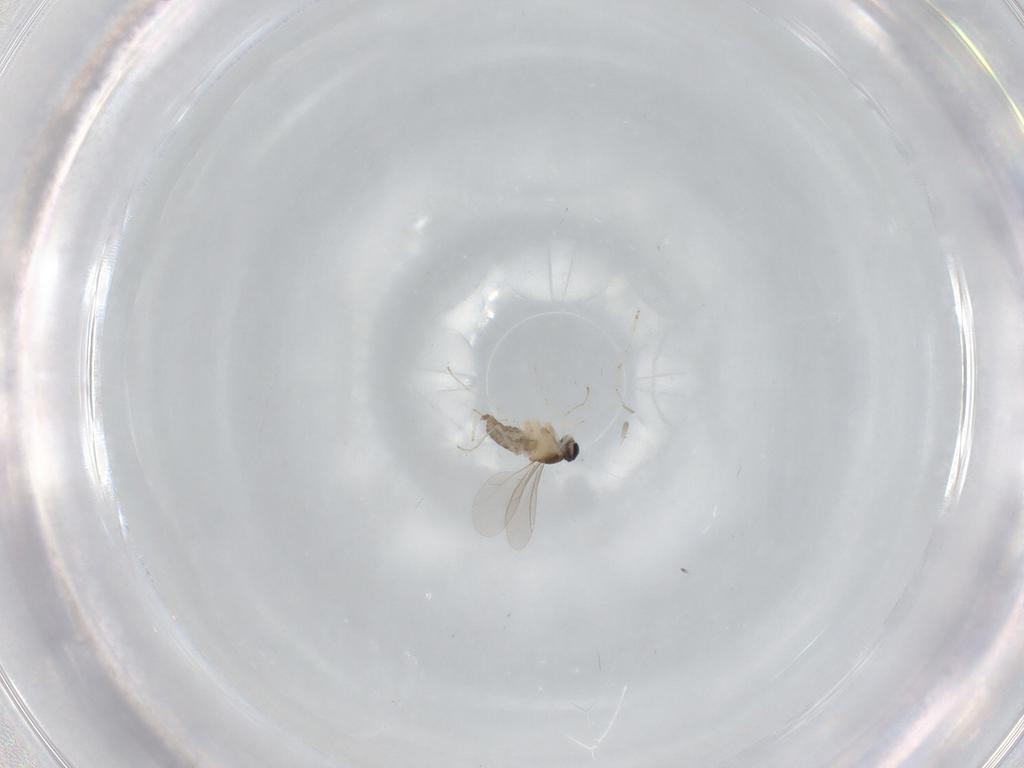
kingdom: Animalia
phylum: Arthropoda
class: Insecta
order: Diptera
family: Cecidomyiidae
